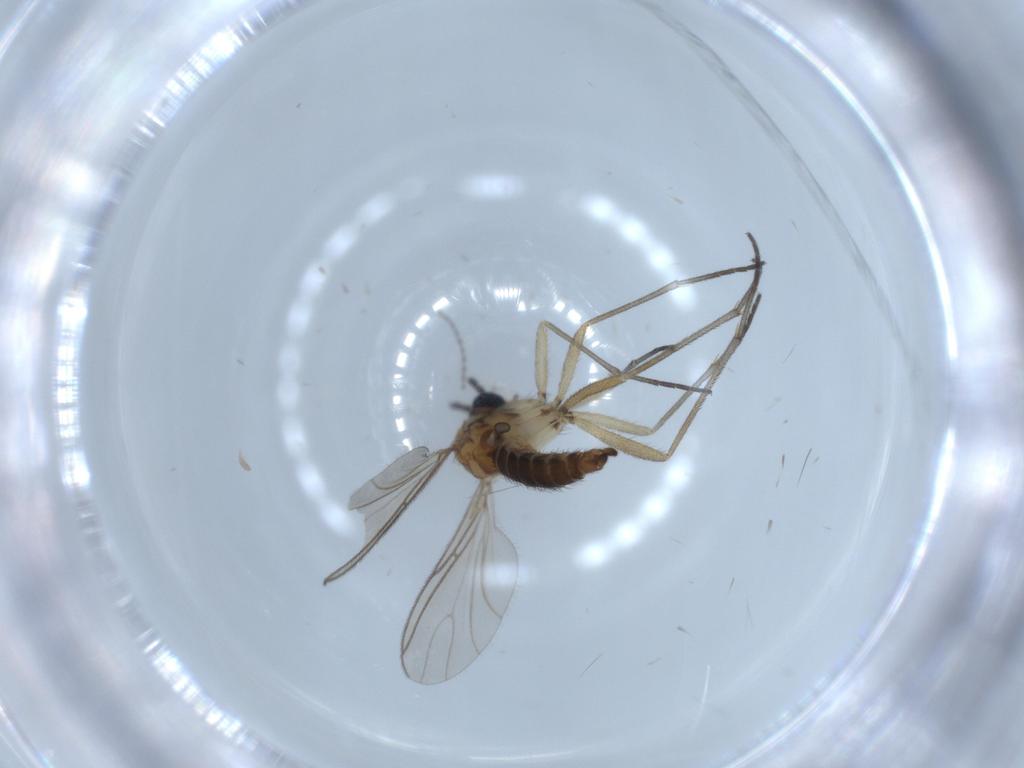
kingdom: Animalia
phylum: Arthropoda
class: Insecta
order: Diptera
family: Sciaridae
